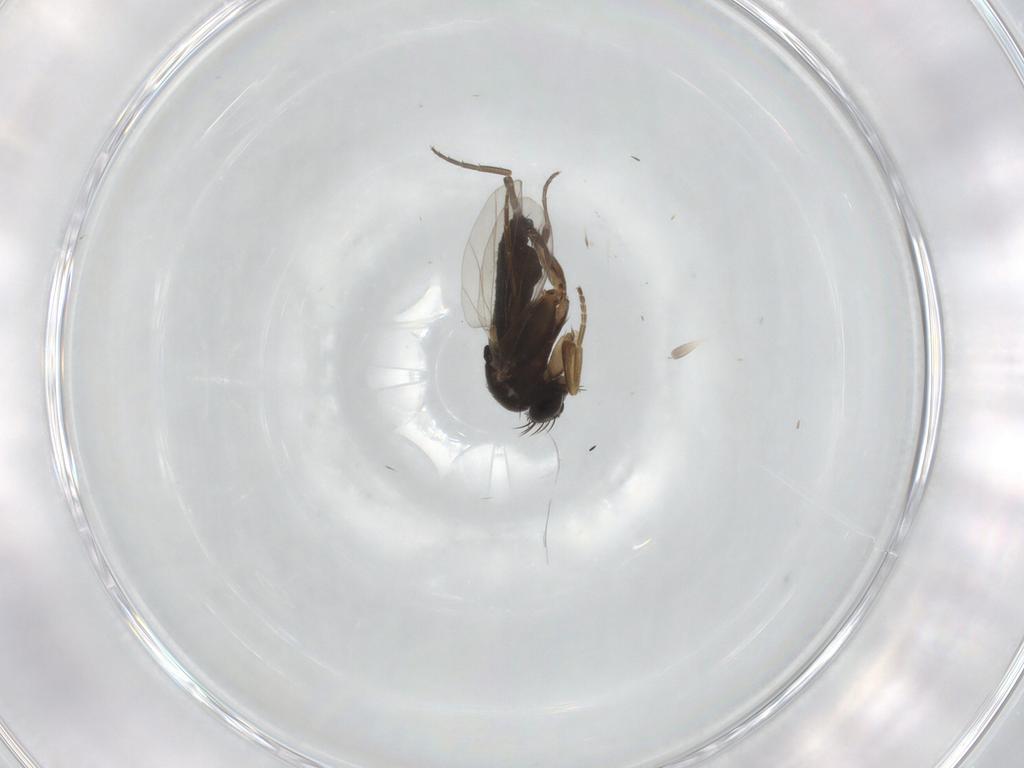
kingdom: Animalia
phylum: Arthropoda
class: Insecta
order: Diptera
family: Phoridae
